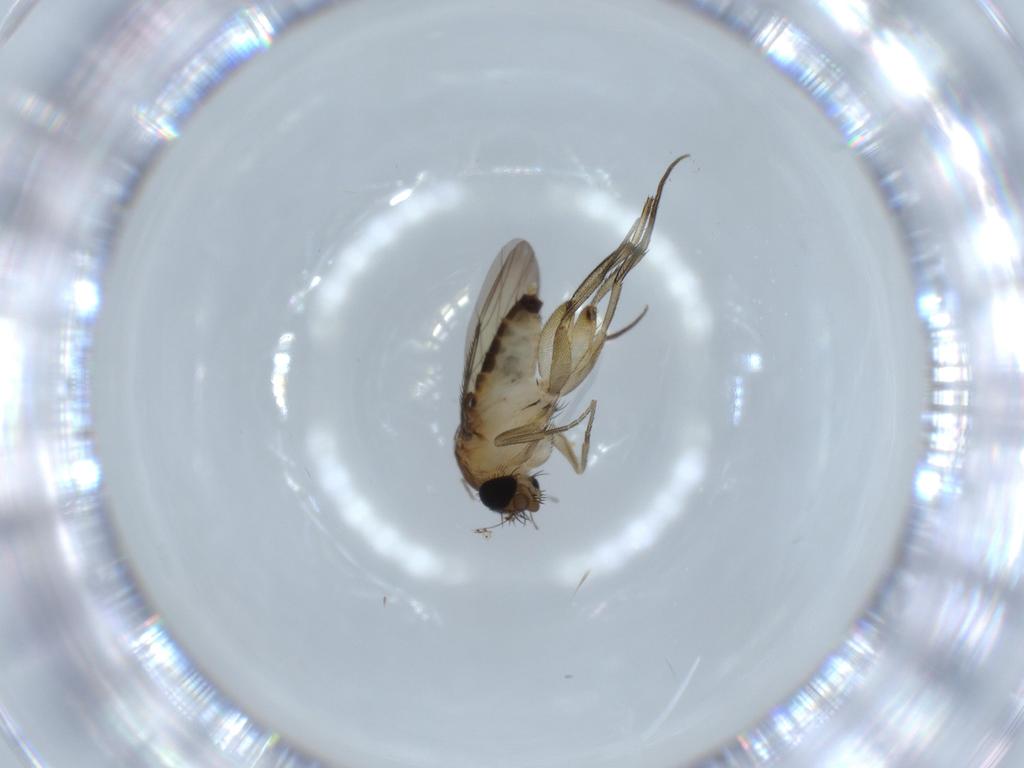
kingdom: Animalia
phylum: Arthropoda
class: Insecta
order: Diptera
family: Phoridae
